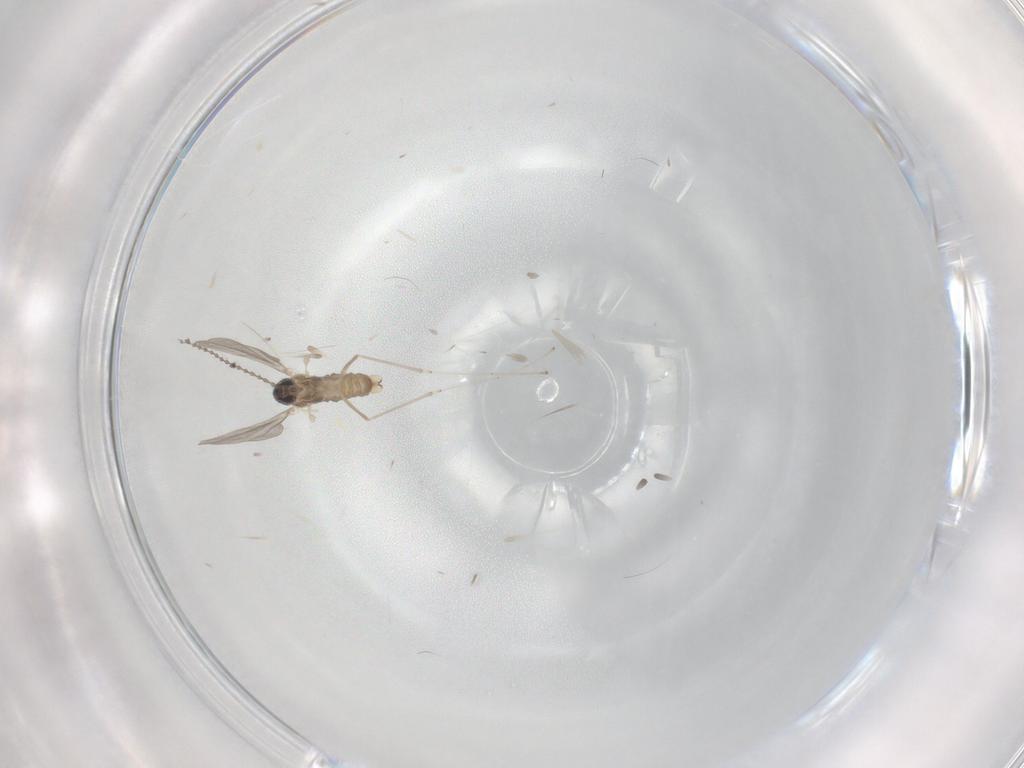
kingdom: Animalia
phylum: Arthropoda
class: Insecta
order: Diptera
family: Cecidomyiidae
